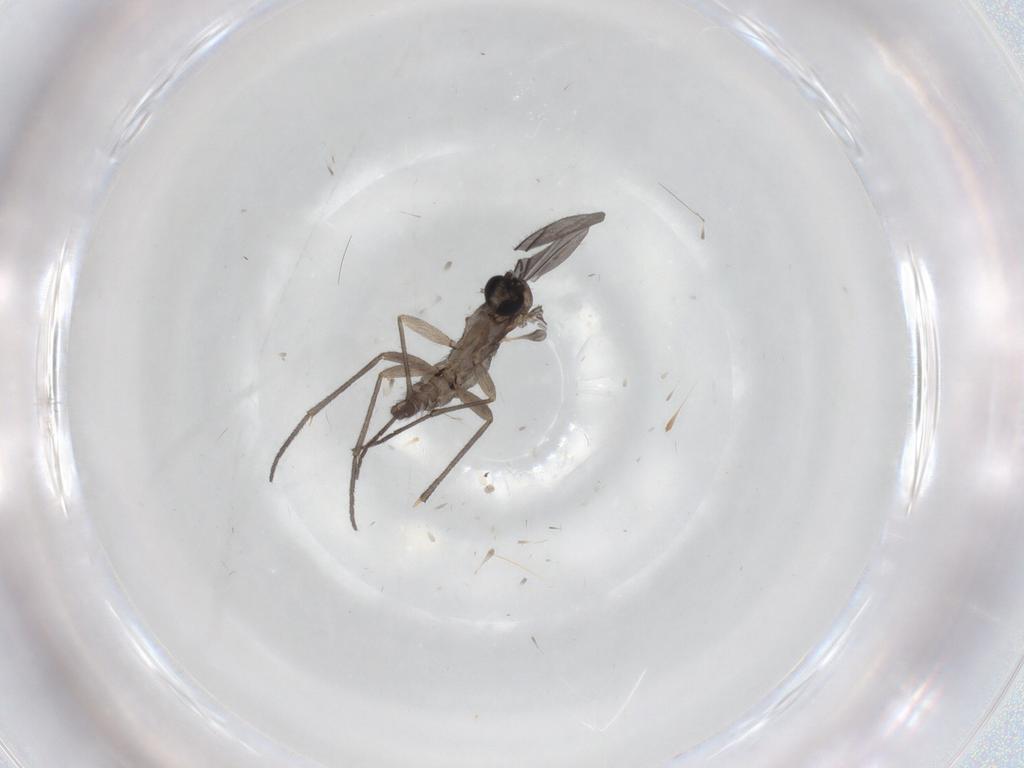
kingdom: Animalia
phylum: Arthropoda
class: Insecta
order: Diptera
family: Sciaridae
